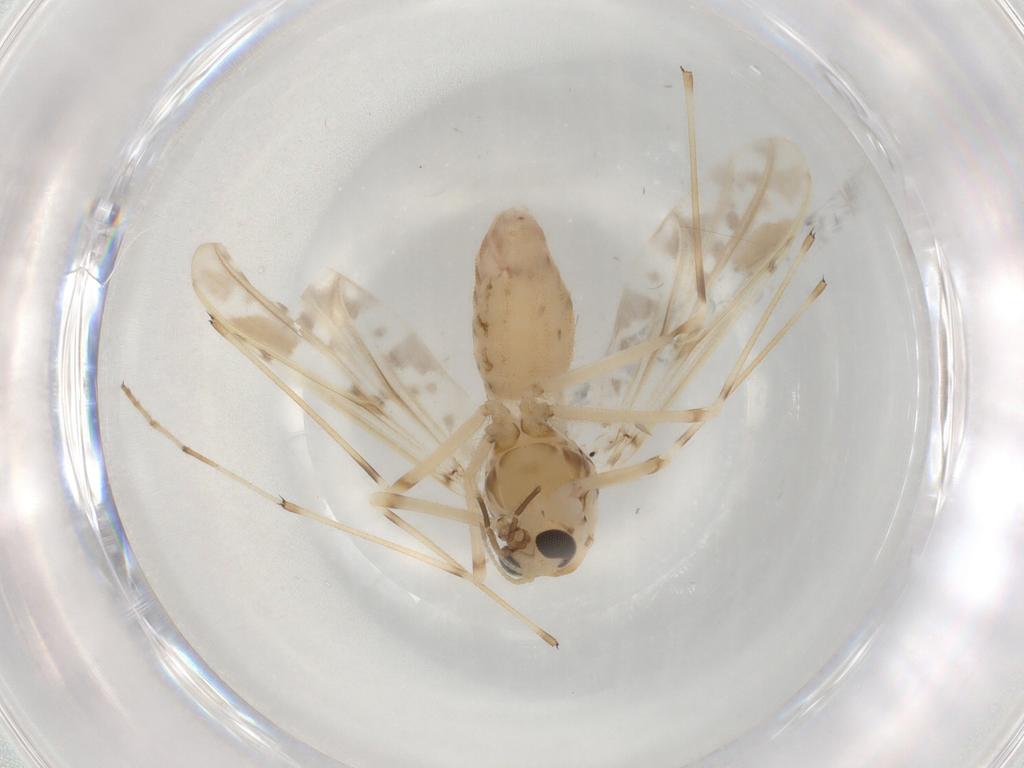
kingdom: Animalia
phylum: Arthropoda
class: Insecta
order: Diptera
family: Chironomidae
